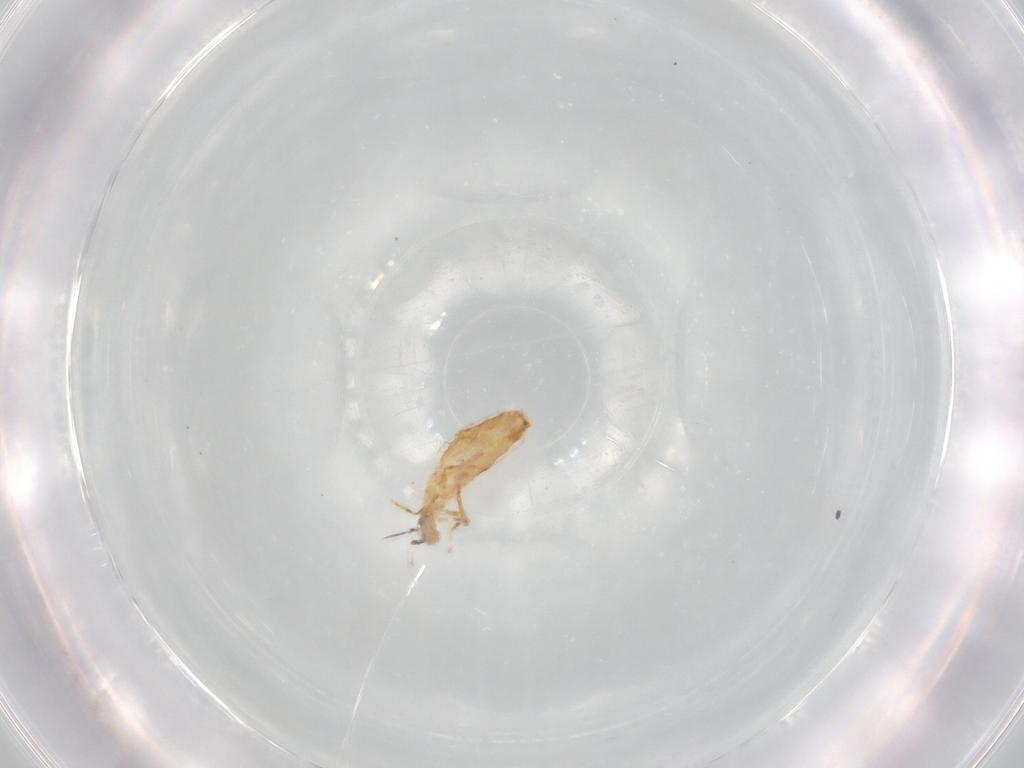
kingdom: Animalia
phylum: Arthropoda
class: Collembola
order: Entomobryomorpha
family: Entomobryidae
